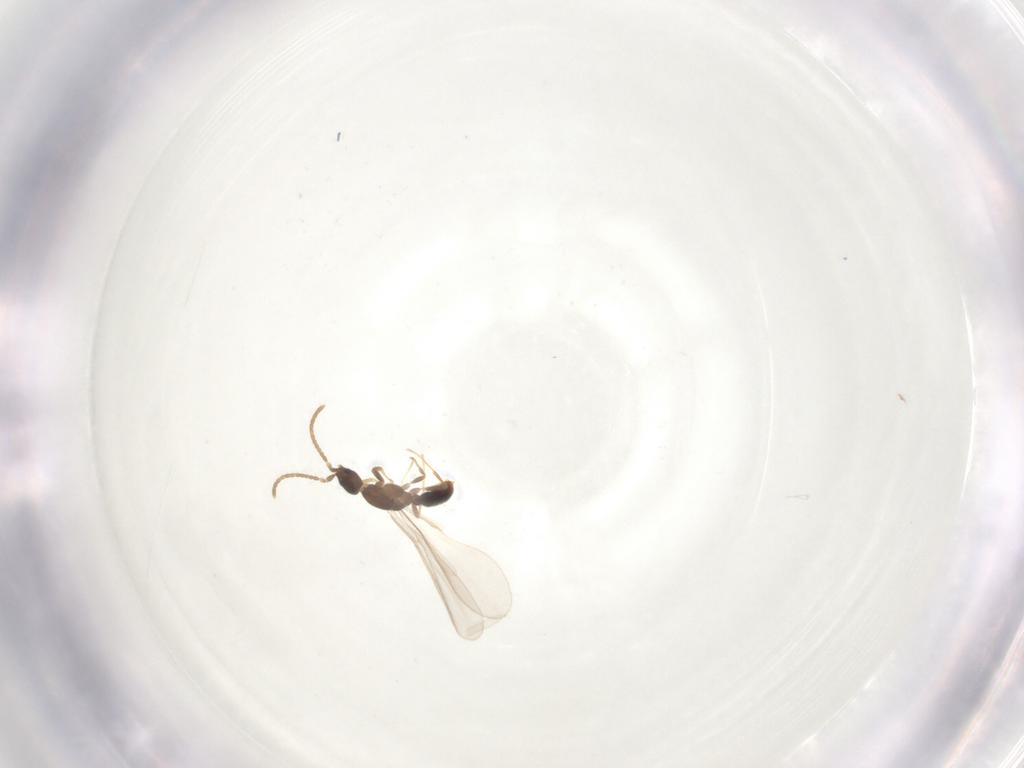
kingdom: Animalia
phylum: Arthropoda
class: Insecta
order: Hymenoptera
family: Formicidae
